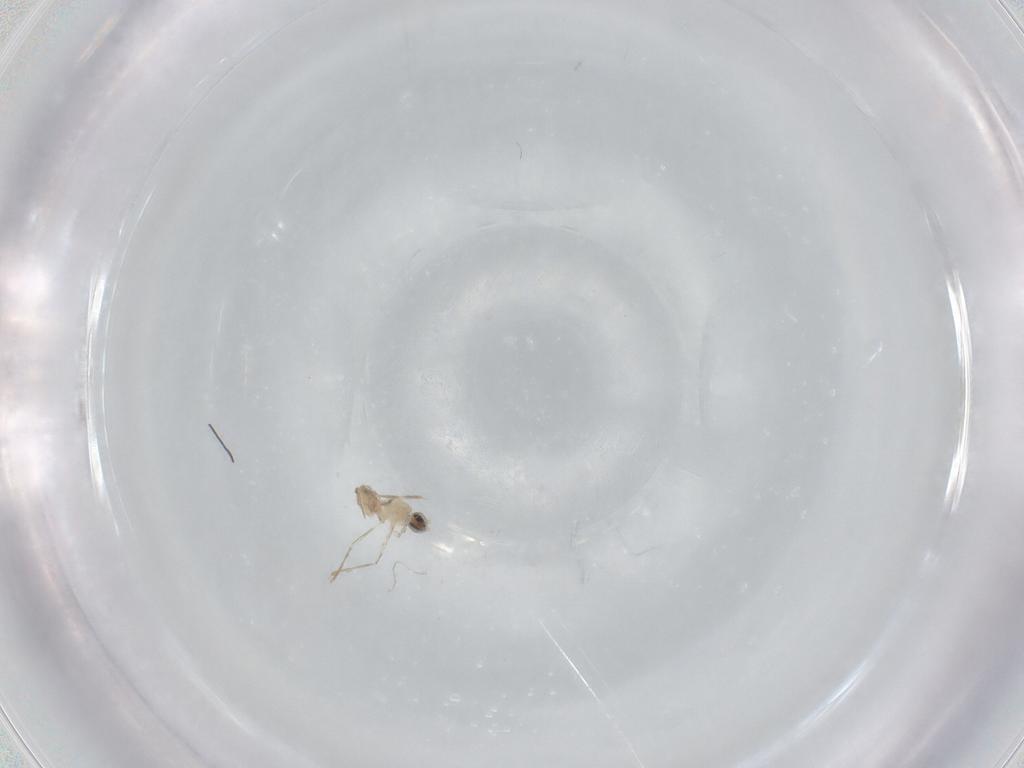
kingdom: Animalia
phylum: Arthropoda
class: Insecta
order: Diptera
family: Cecidomyiidae
